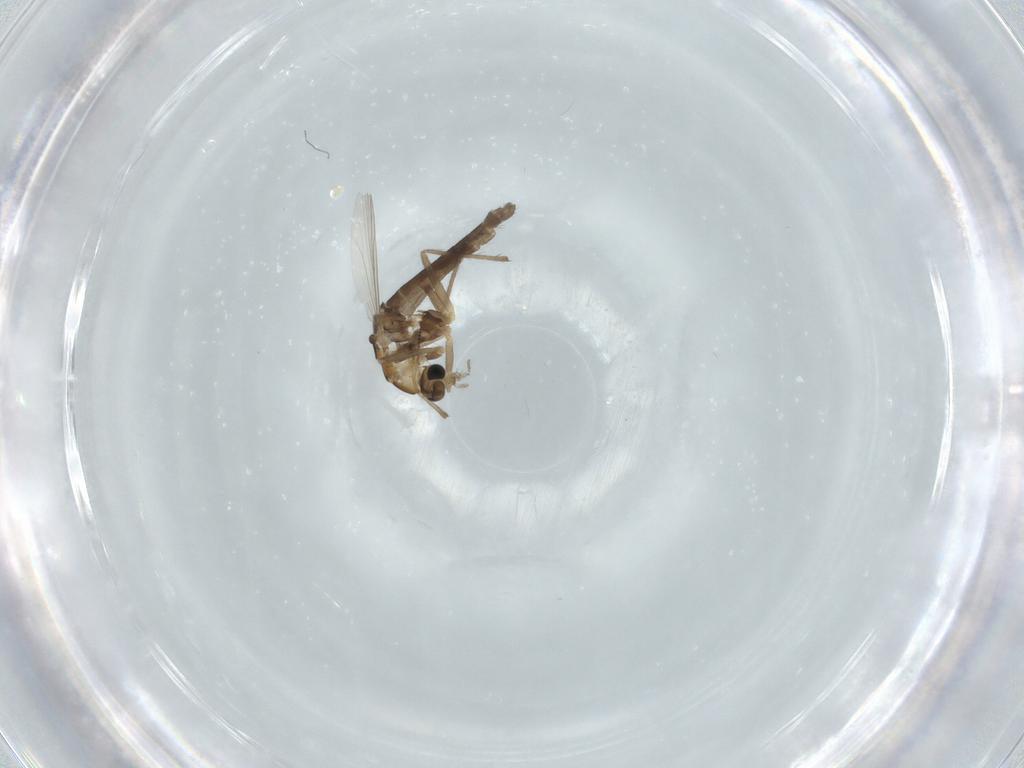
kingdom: Animalia
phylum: Arthropoda
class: Insecta
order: Diptera
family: Chironomidae
